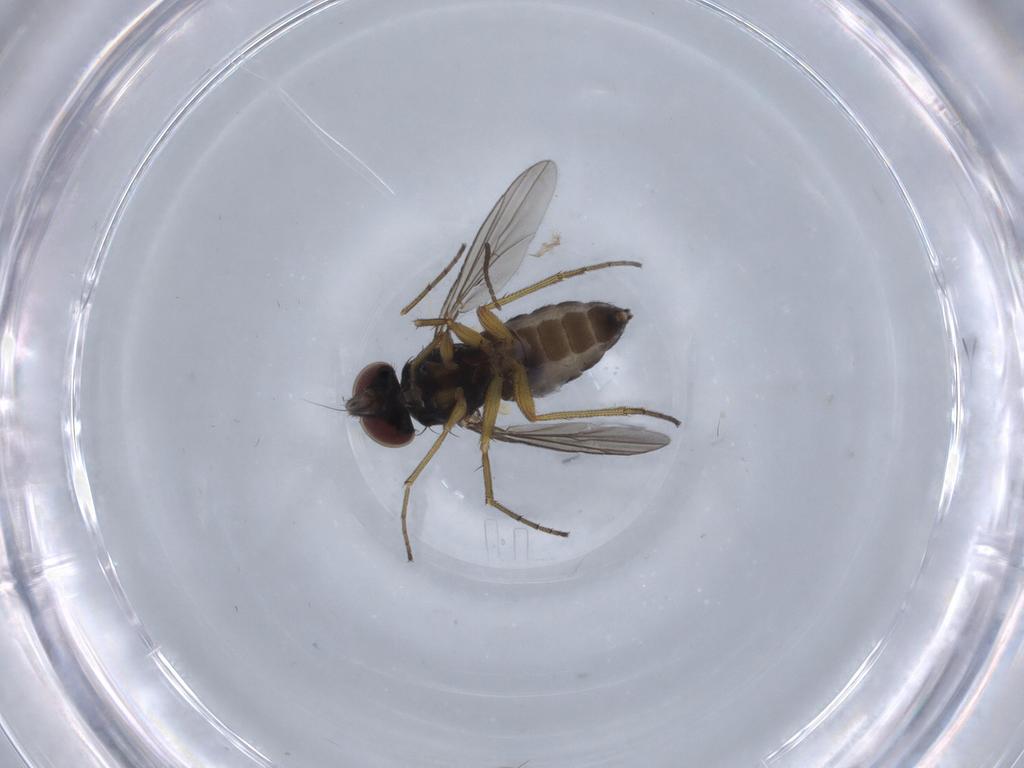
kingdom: Animalia
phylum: Arthropoda
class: Insecta
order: Diptera
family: Dolichopodidae
